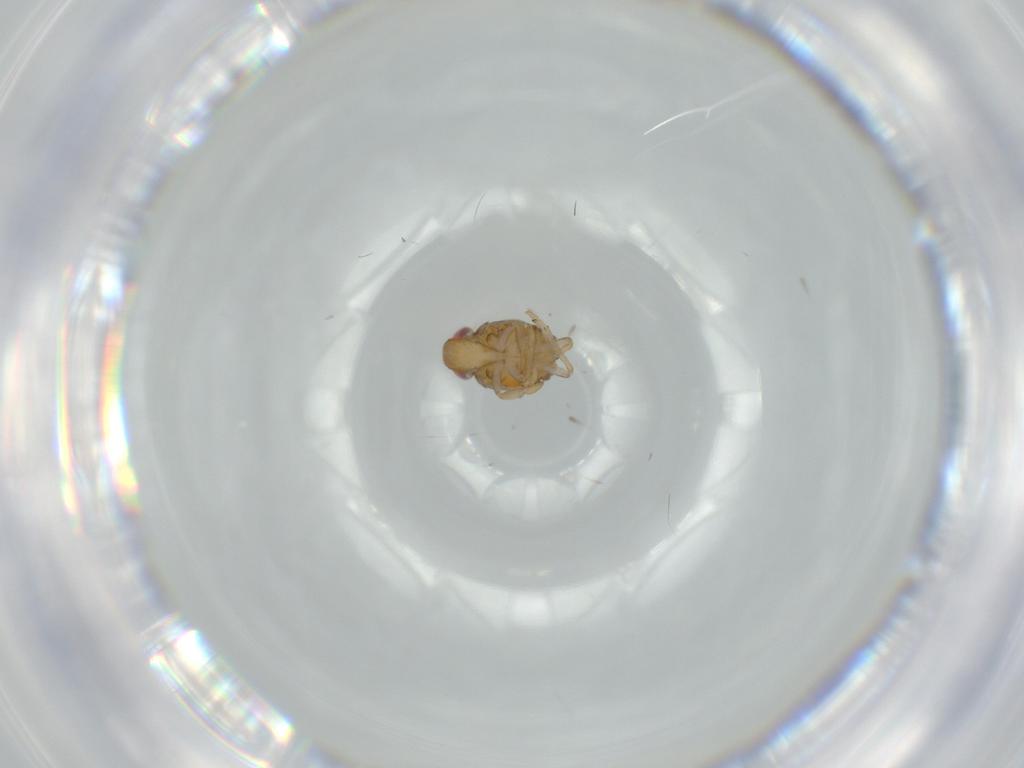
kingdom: Animalia
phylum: Arthropoda
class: Insecta
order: Hemiptera
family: Issidae
